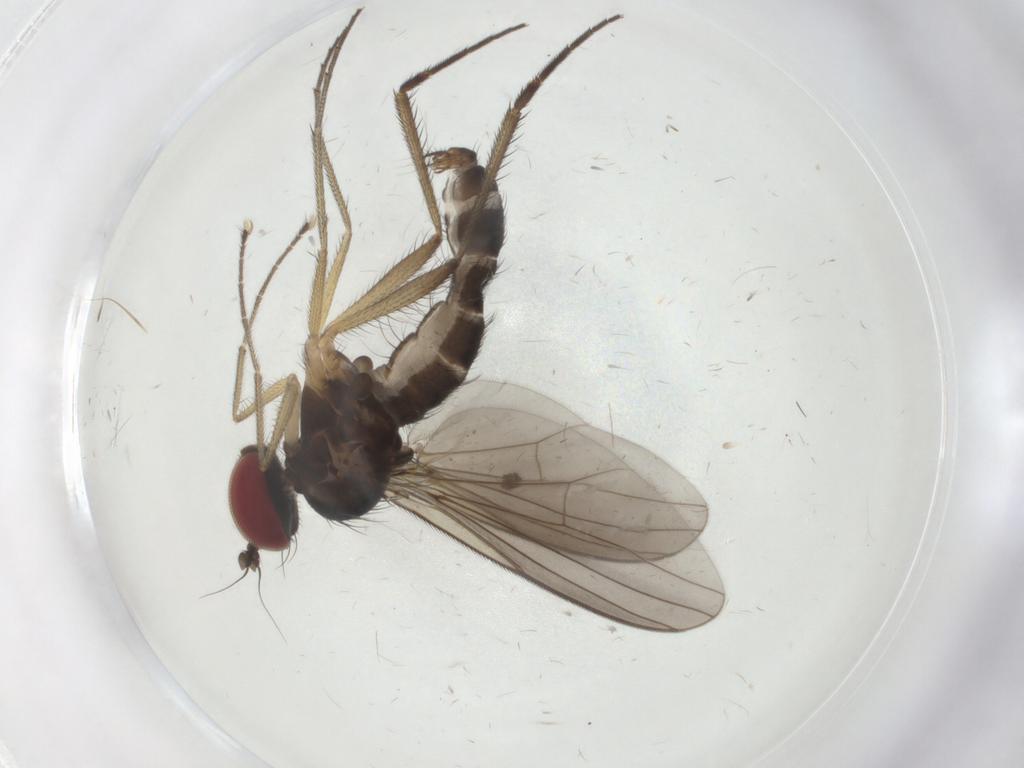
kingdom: Animalia
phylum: Arthropoda
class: Insecta
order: Diptera
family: Dolichopodidae
